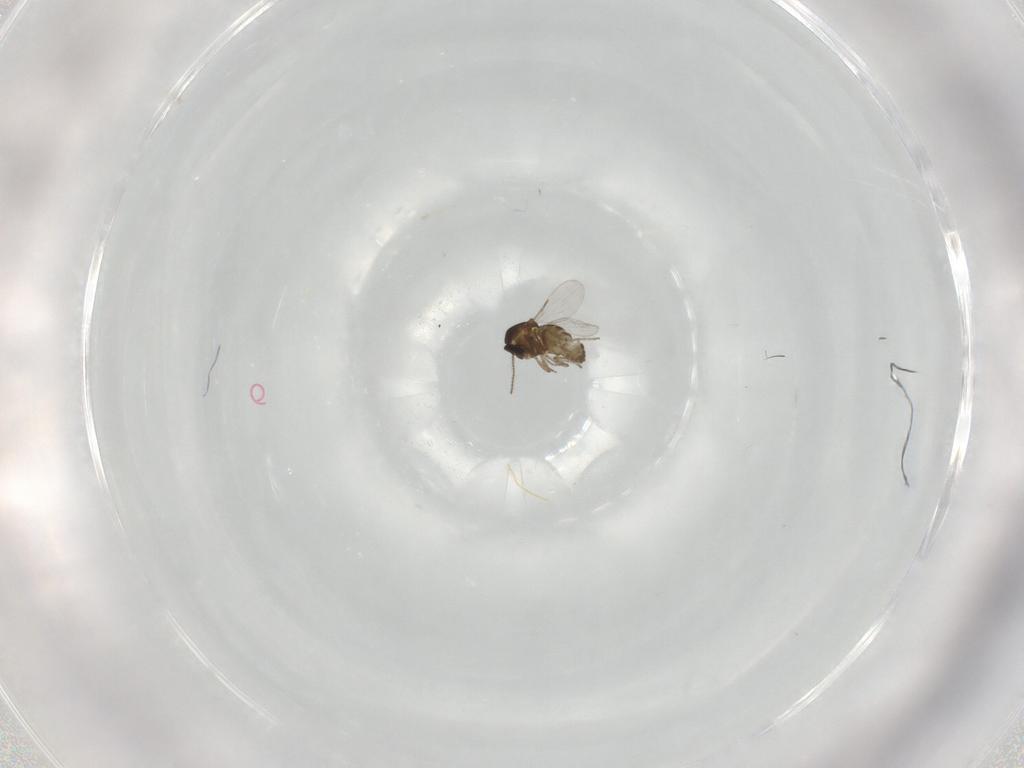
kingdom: Animalia
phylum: Arthropoda
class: Insecta
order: Diptera
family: Ceratopogonidae
